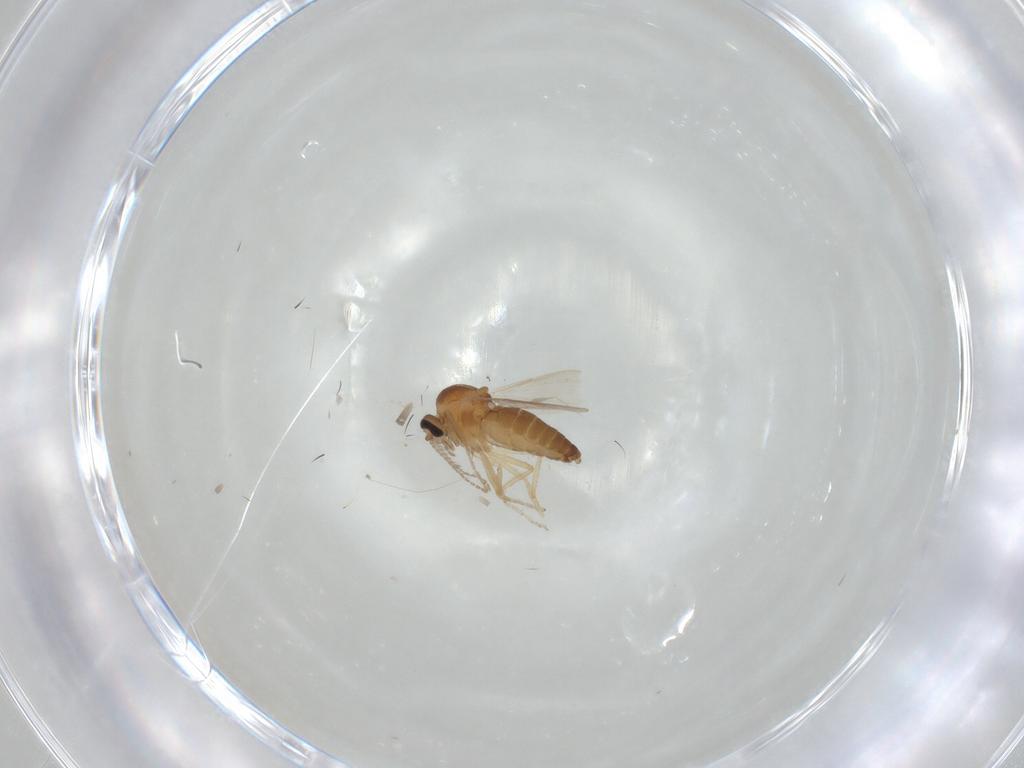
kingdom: Animalia
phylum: Arthropoda
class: Insecta
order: Diptera
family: Ceratopogonidae
